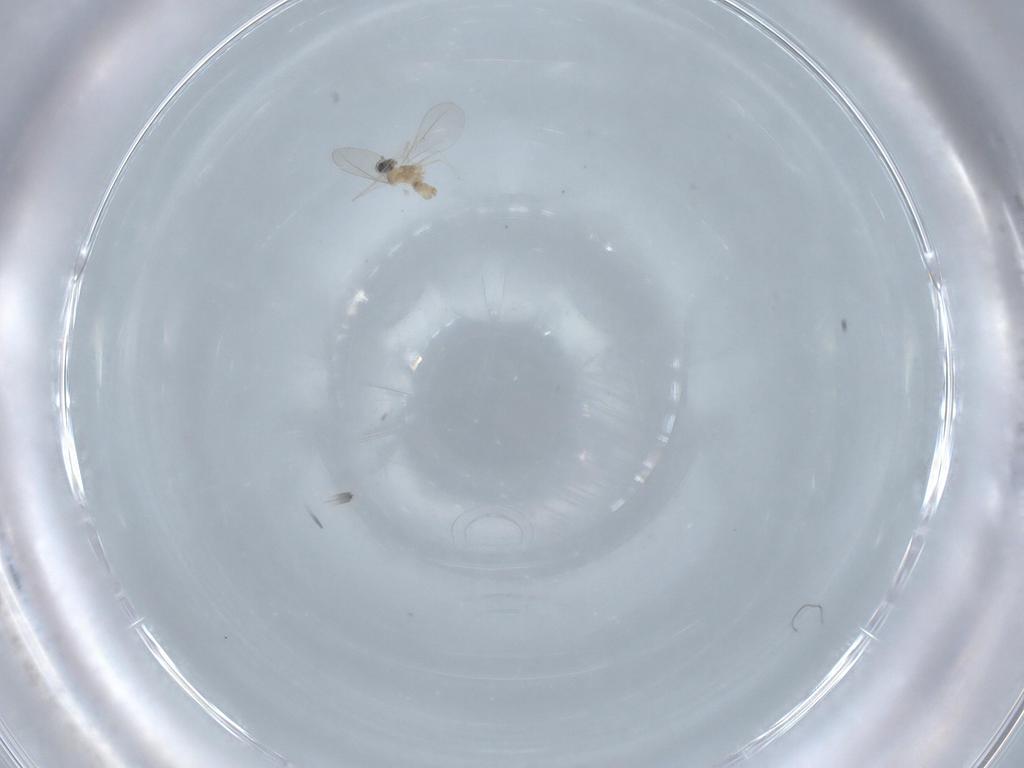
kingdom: Animalia
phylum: Arthropoda
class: Insecta
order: Diptera
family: Cecidomyiidae
